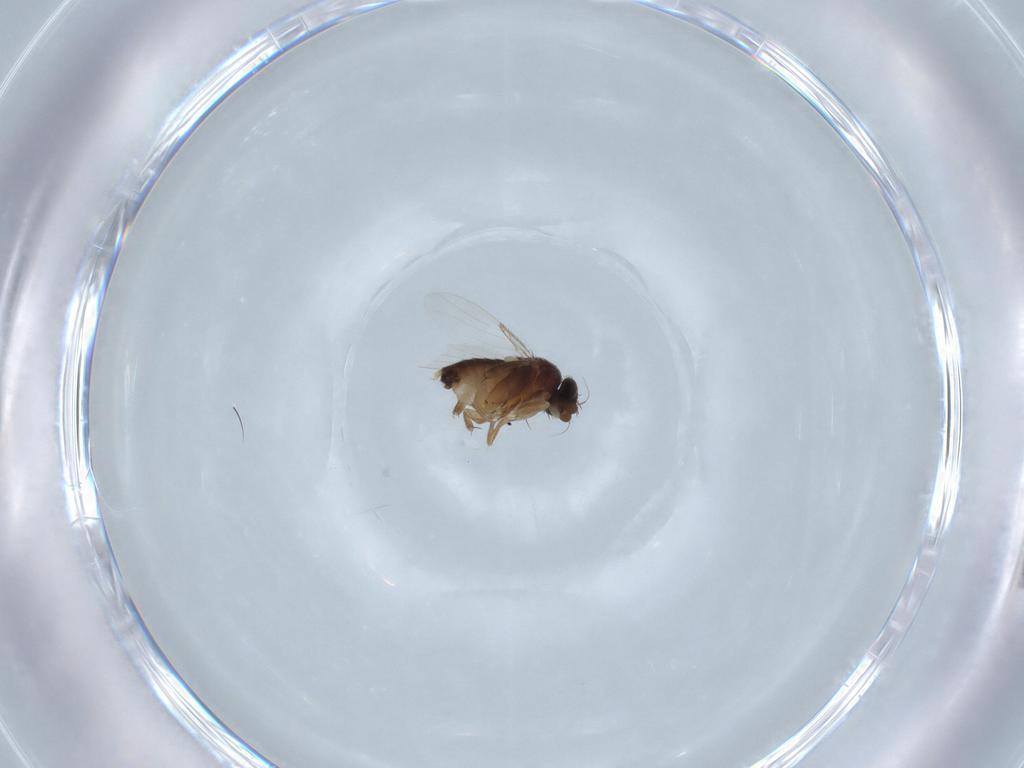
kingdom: Animalia
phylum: Arthropoda
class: Insecta
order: Diptera
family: Phoridae
